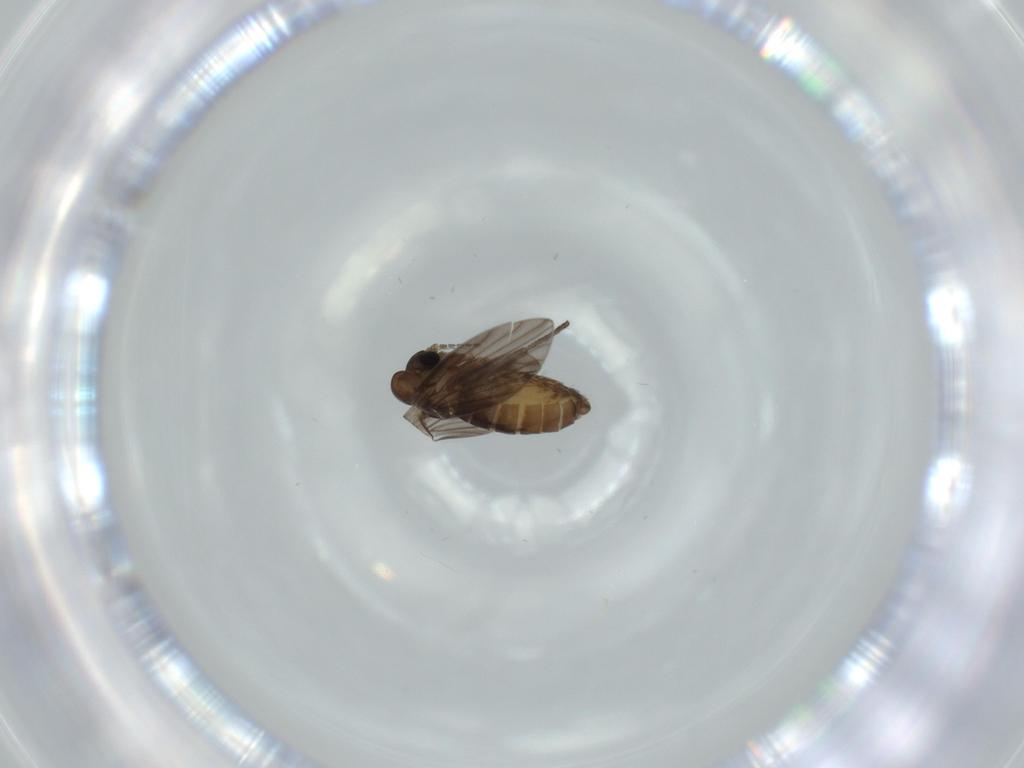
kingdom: Animalia
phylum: Arthropoda
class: Insecta
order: Diptera
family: Psychodidae
